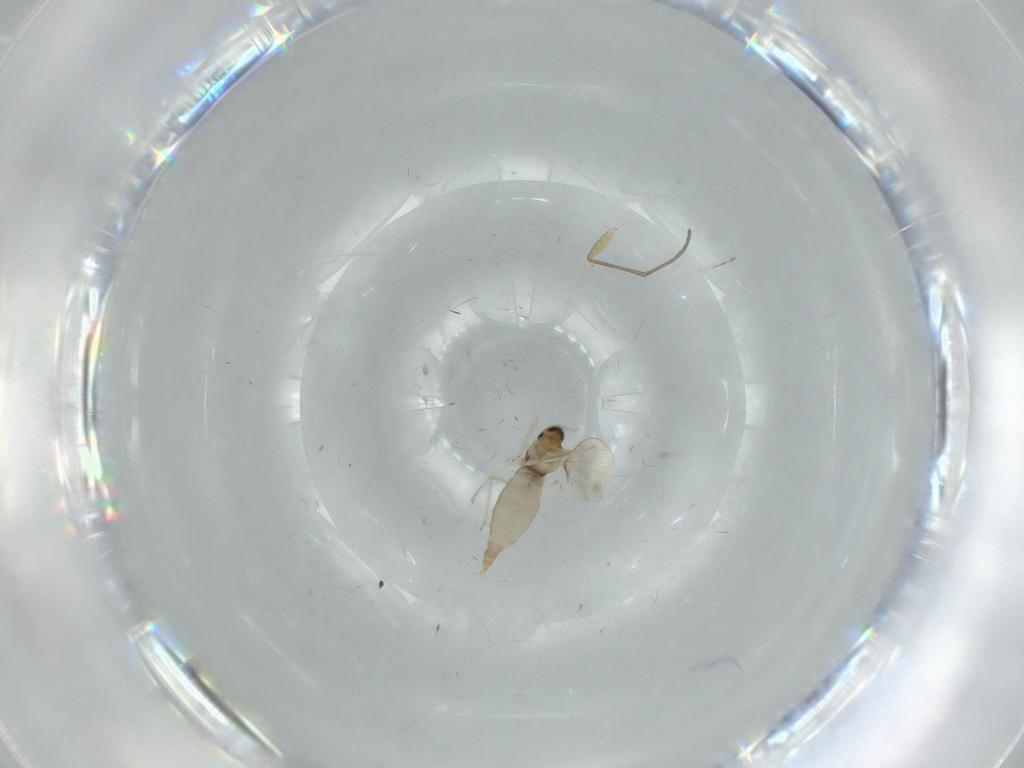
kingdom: Animalia
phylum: Arthropoda
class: Insecta
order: Diptera
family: Cecidomyiidae
